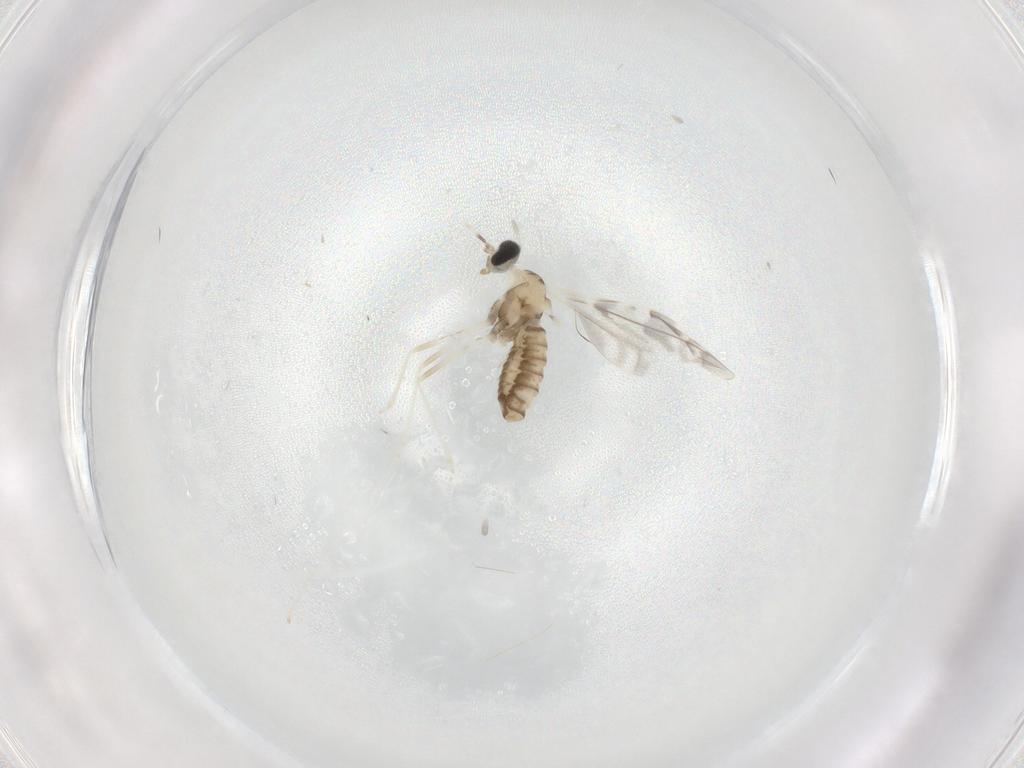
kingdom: Animalia
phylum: Arthropoda
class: Insecta
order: Diptera
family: Cecidomyiidae
